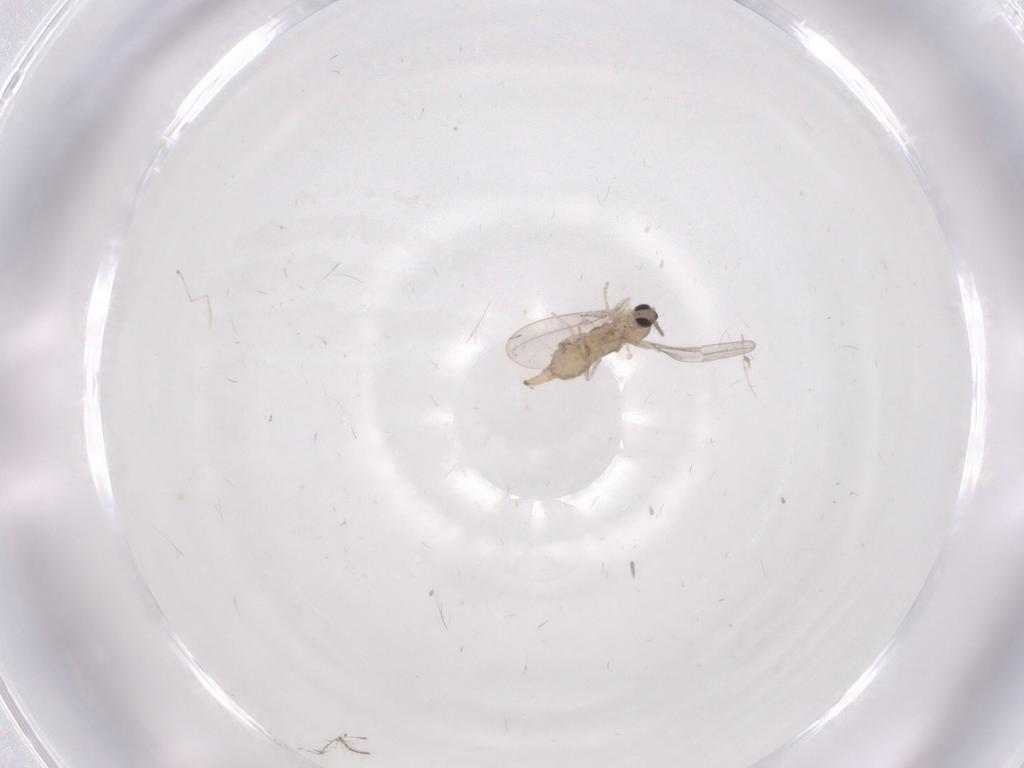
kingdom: Animalia
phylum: Arthropoda
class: Insecta
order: Diptera
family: Cecidomyiidae
